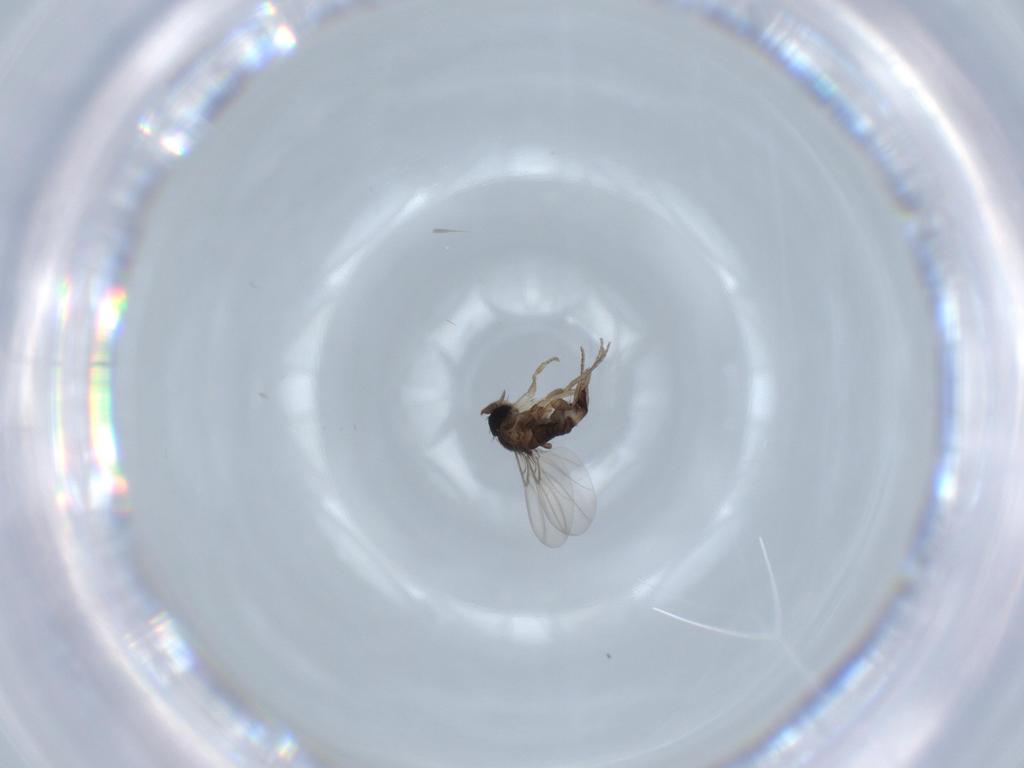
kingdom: Animalia
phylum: Arthropoda
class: Insecta
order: Diptera
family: Phoridae
